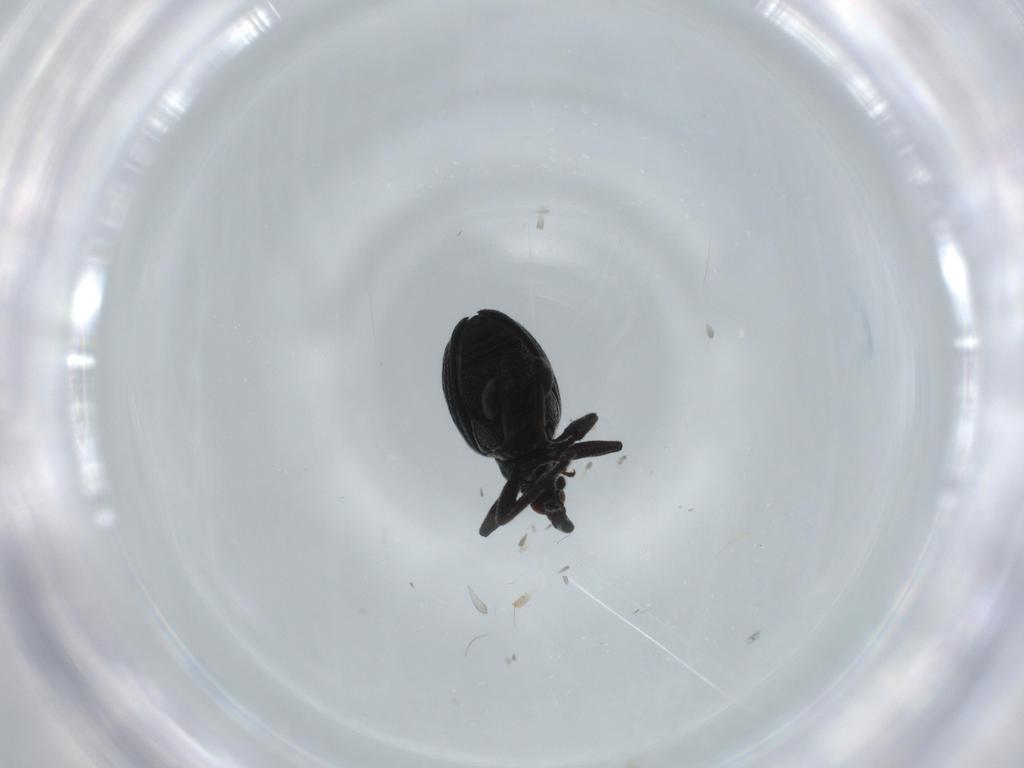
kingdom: Animalia
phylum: Arthropoda
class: Insecta
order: Coleoptera
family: Brentidae
